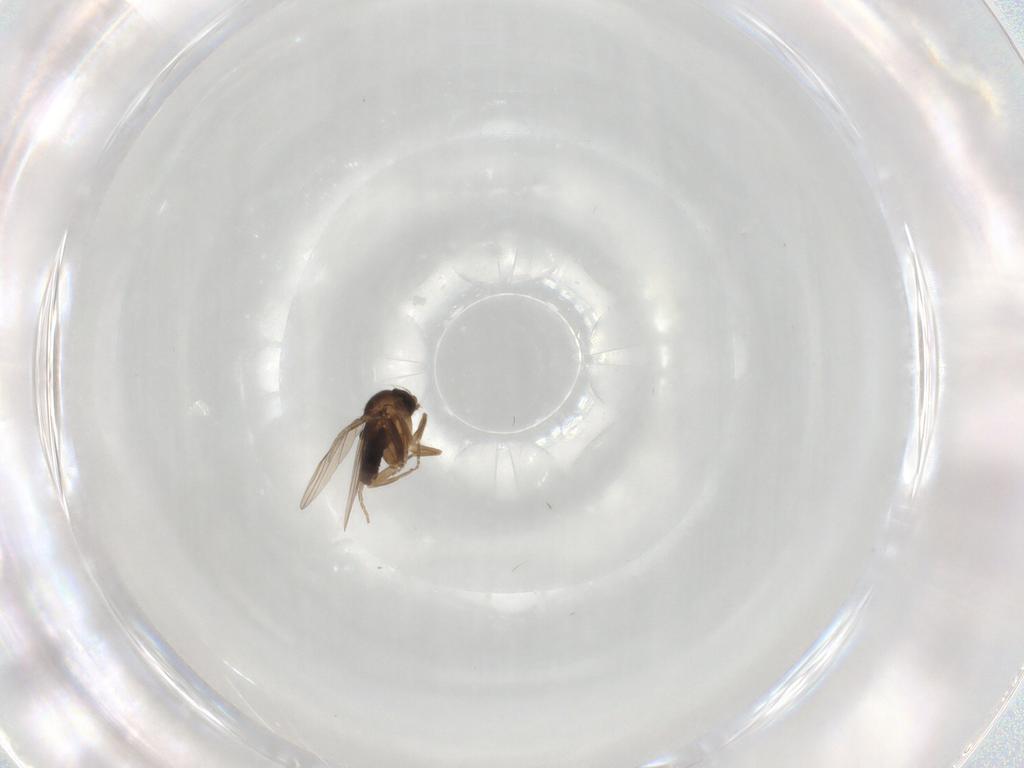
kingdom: Animalia
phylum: Arthropoda
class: Insecta
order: Diptera
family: Phoridae
